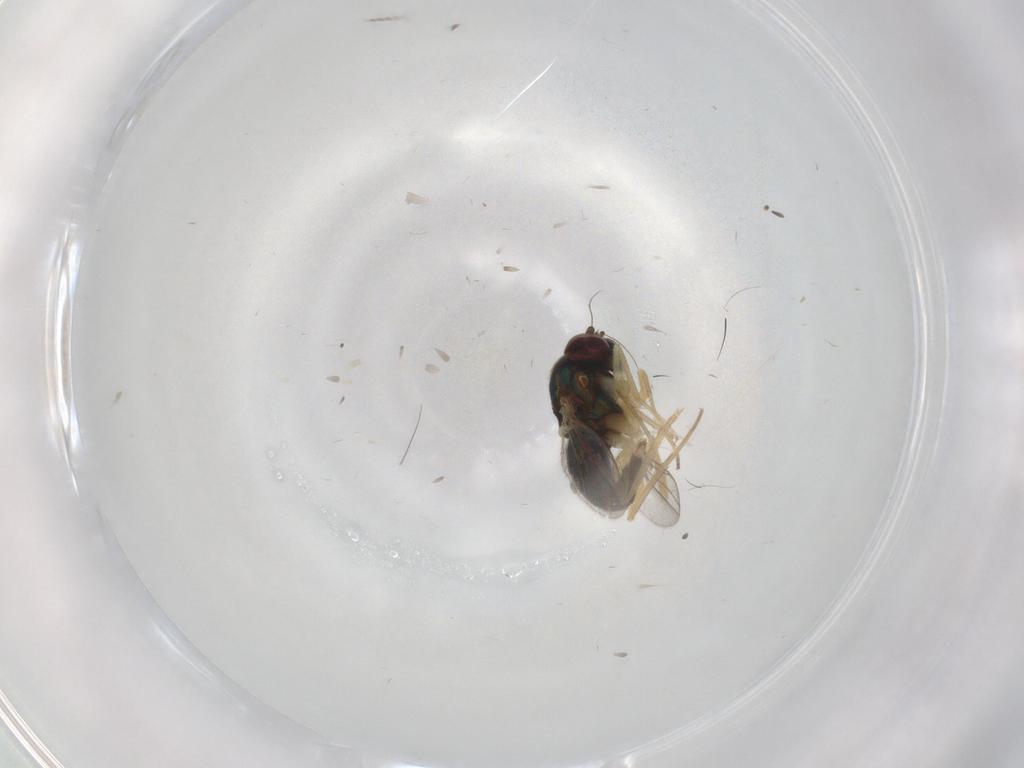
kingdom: Animalia
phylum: Arthropoda
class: Insecta
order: Diptera
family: Dolichopodidae
